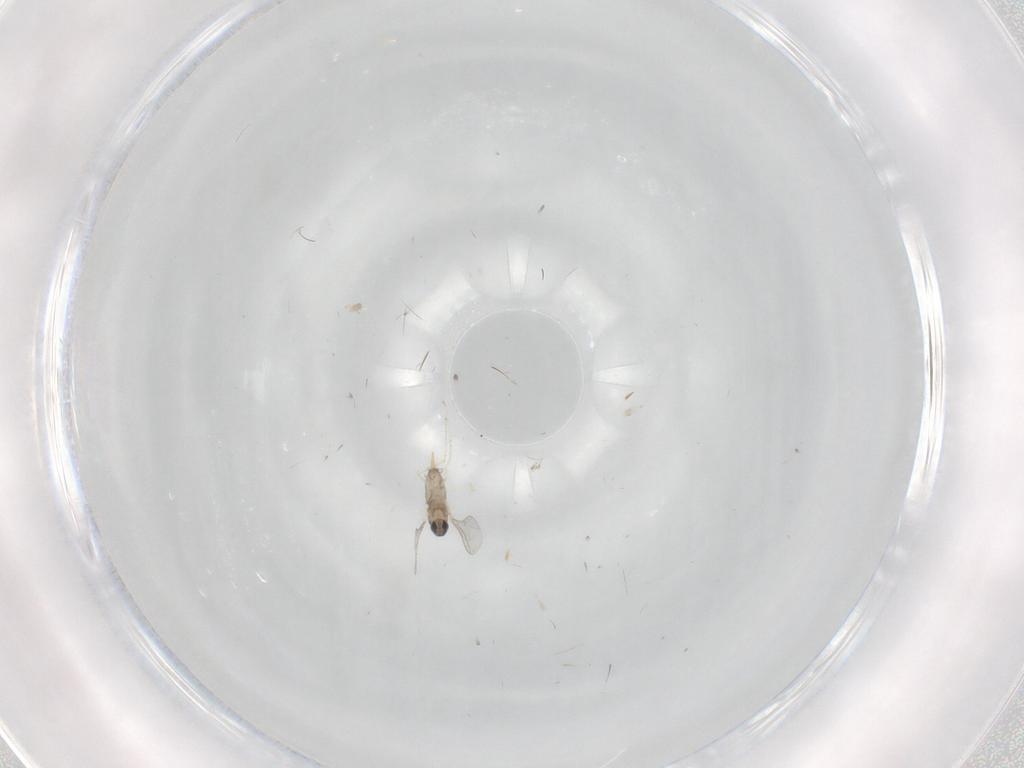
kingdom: Animalia
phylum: Arthropoda
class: Insecta
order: Diptera
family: Cecidomyiidae
